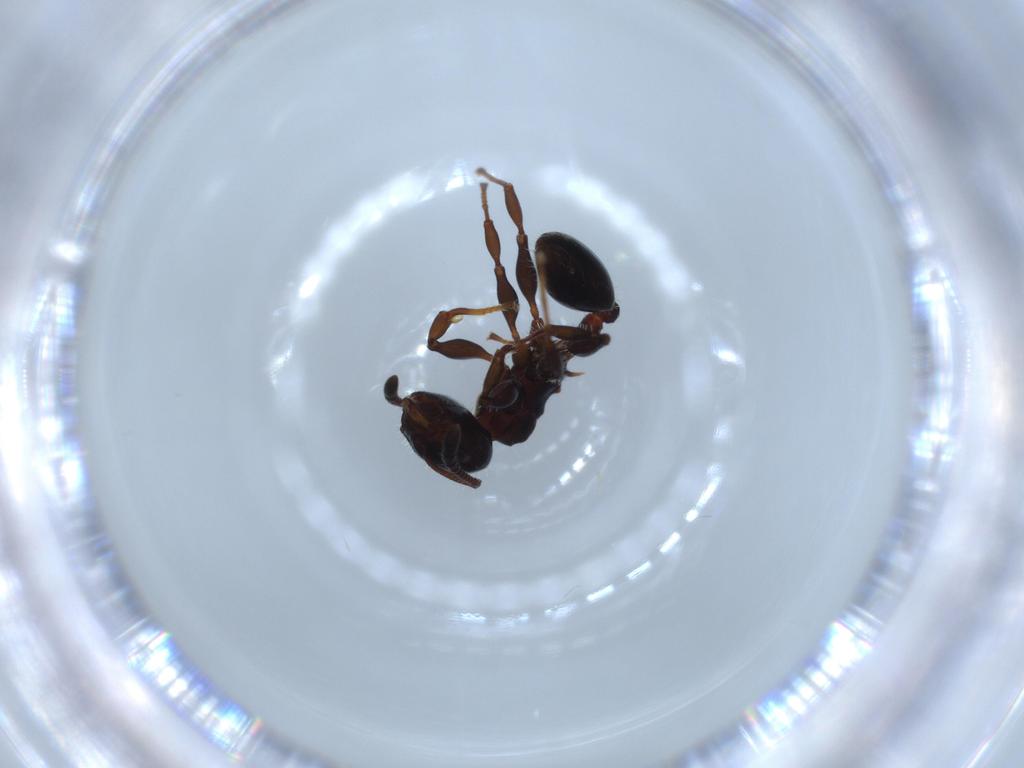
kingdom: Animalia
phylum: Arthropoda
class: Insecta
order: Hymenoptera
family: Formicidae
